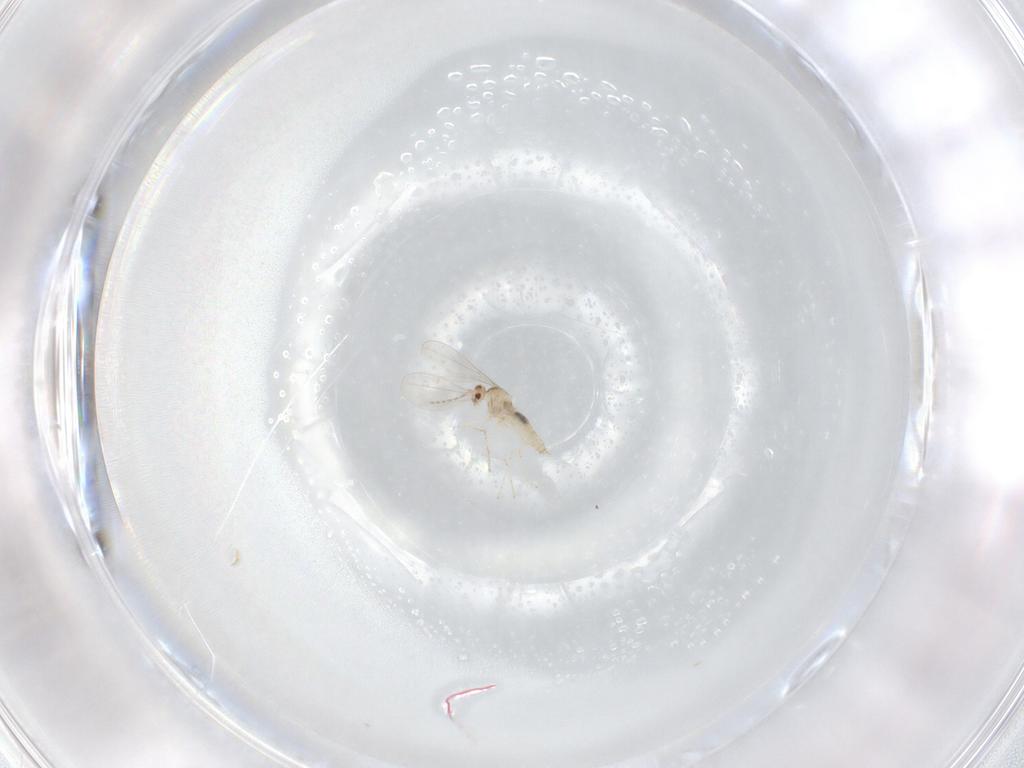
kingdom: Animalia
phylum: Arthropoda
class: Insecta
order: Diptera
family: Cecidomyiidae
